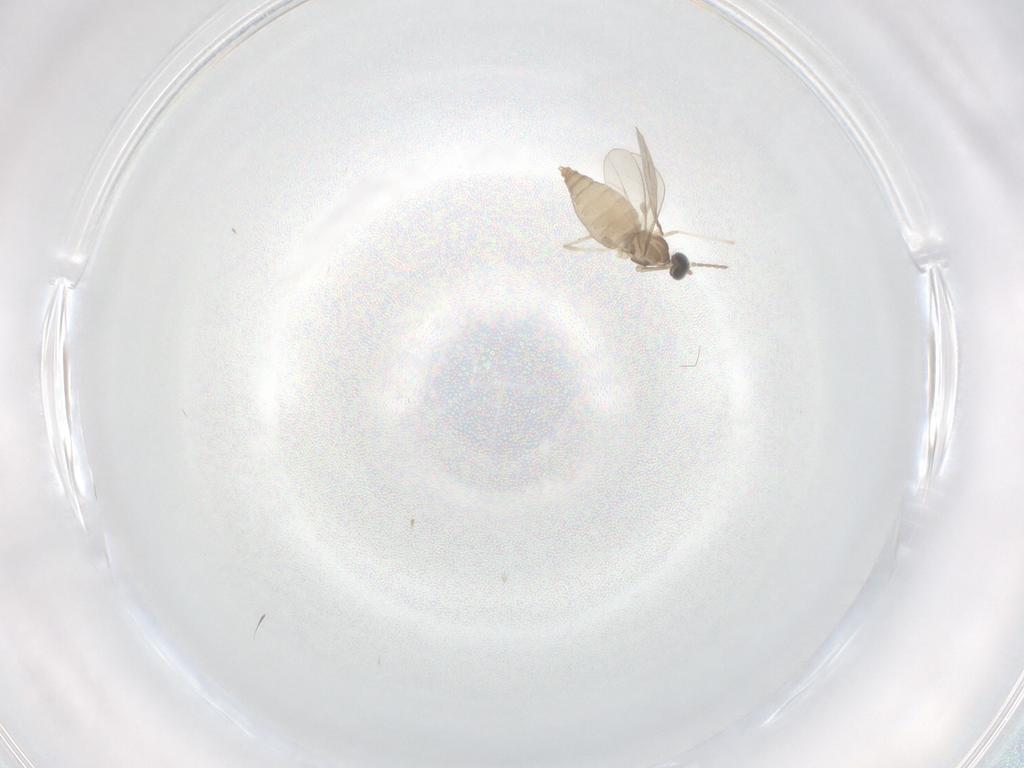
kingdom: Animalia
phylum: Arthropoda
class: Insecta
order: Diptera
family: Cecidomyiidae
